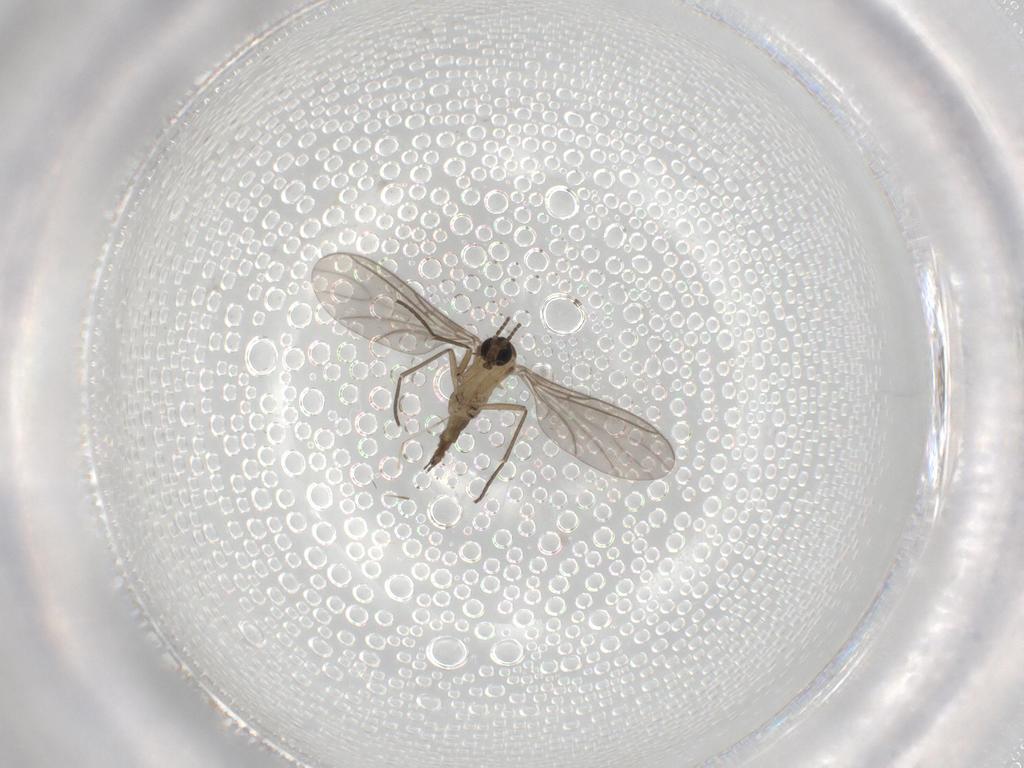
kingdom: Animalia
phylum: Arthropoda
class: Insecta
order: Diptera
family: Sciaridae
